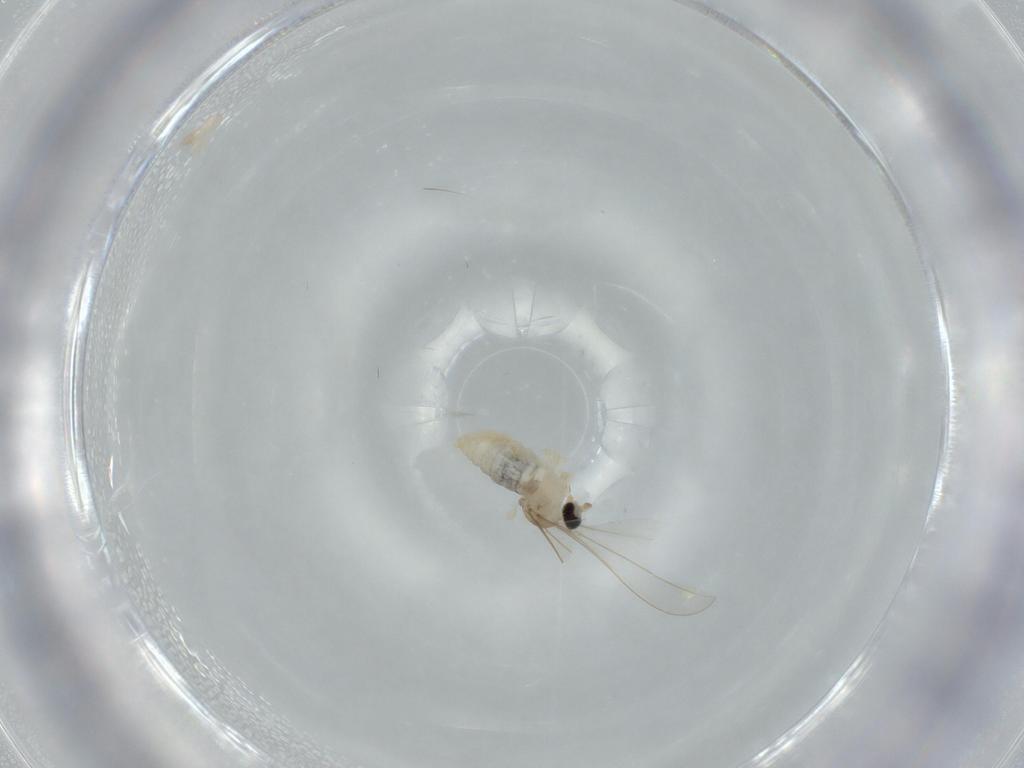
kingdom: Animalia
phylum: Arthropoda
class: Insecta
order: Diptera
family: Cecidomyiidae
